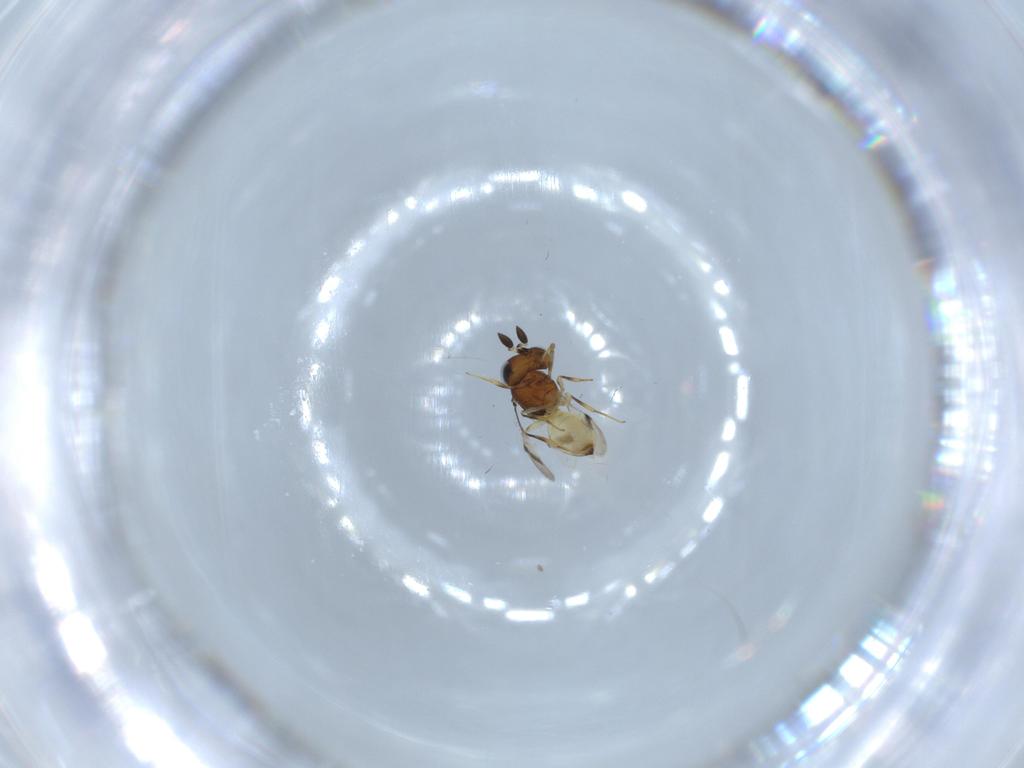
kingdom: Animalia
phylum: Arthropoda
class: Arachnida
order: Araneae
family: Pholcidae
